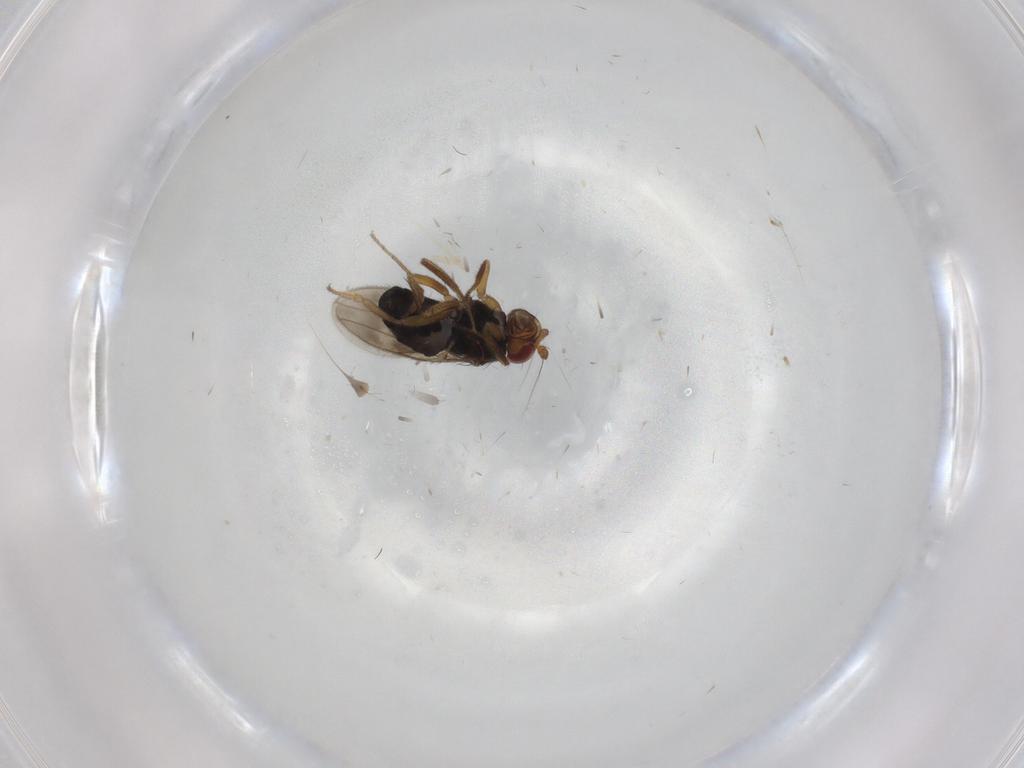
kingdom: Animalia
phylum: Arthropoda
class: Insecta
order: Diptera
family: Sphaeroceridae
